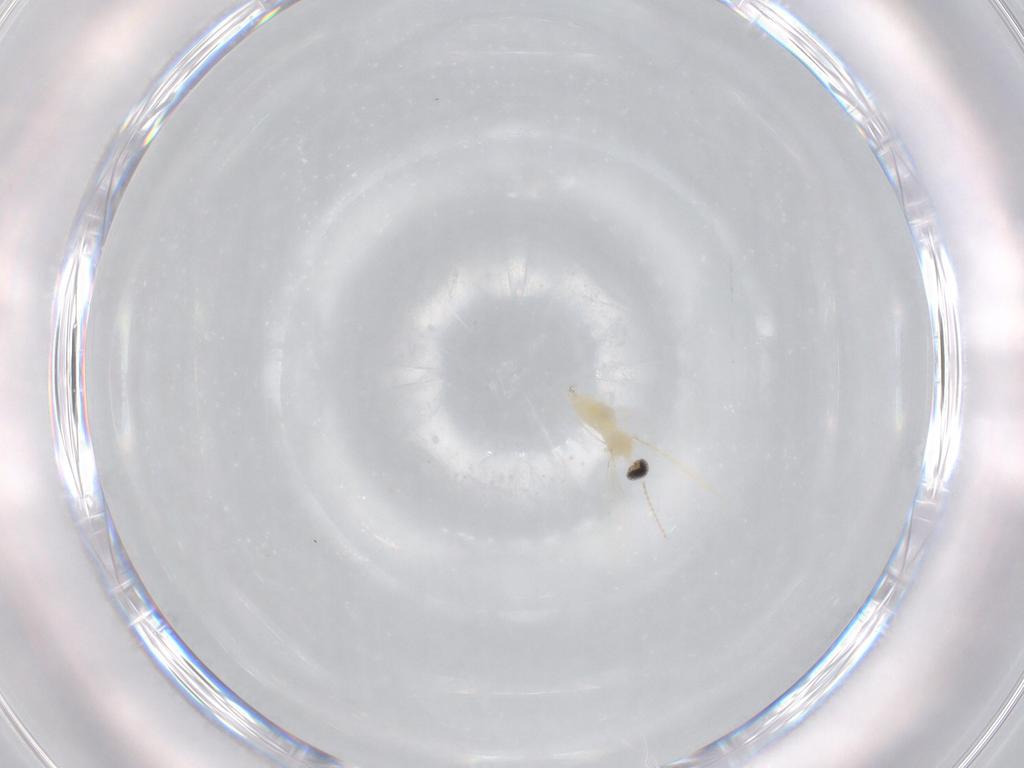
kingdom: Animalia
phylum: Arthropoda
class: Insecta
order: Diptera
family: Cecidomyiidae
